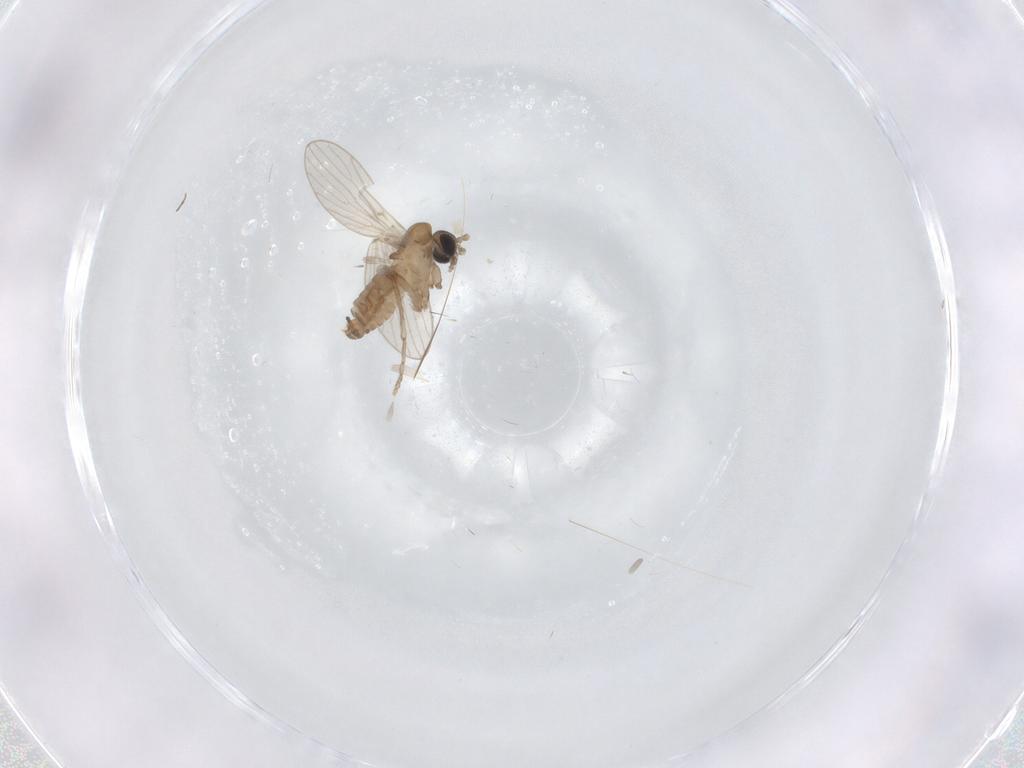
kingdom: Animalia
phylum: Arthropoda
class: Insecta
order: Diptera
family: Psychodidae
